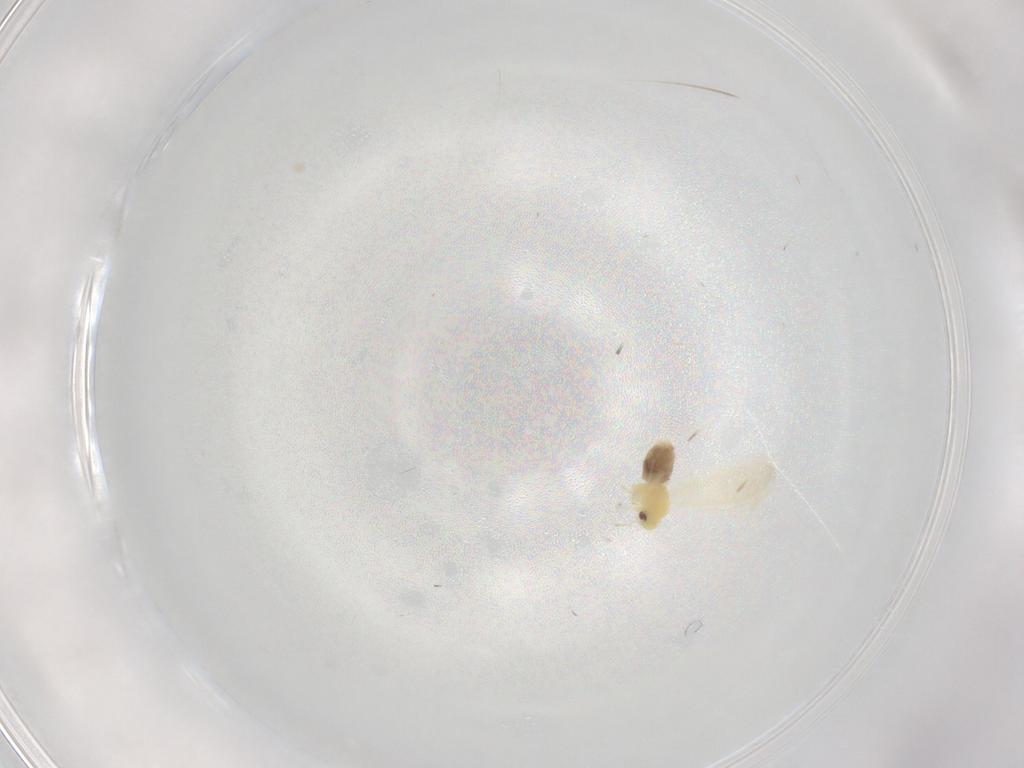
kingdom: Animalia
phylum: Arthropoda
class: Insecta
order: Hemiptera
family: Aleyrodidae
